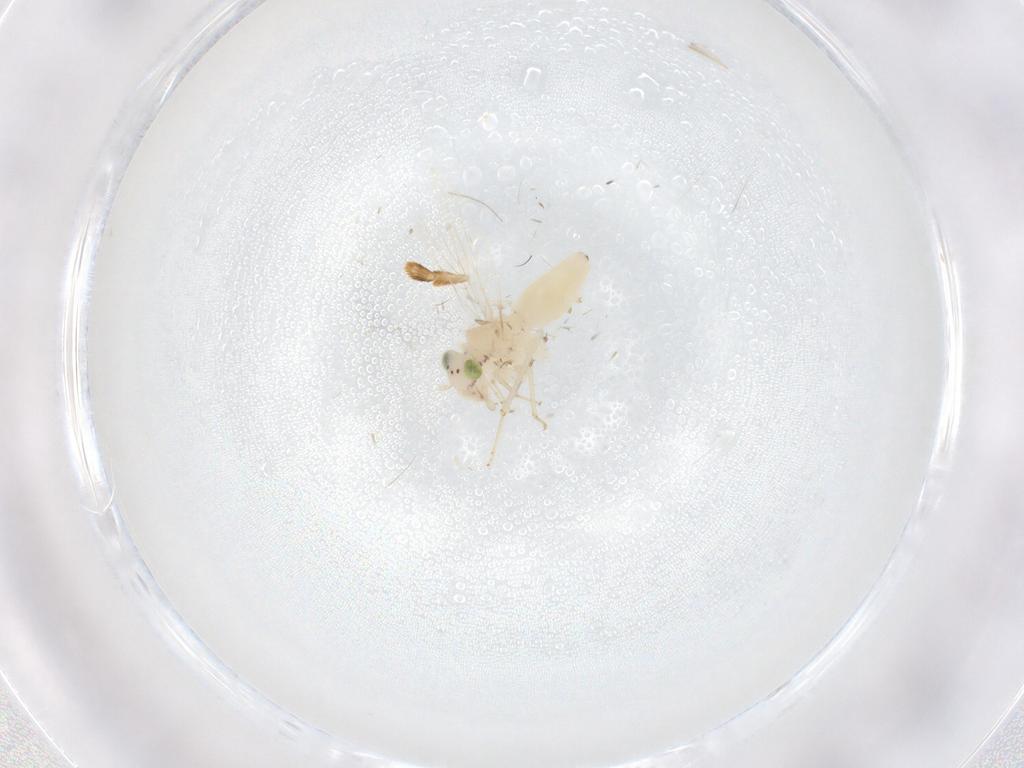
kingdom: Animalia
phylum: Arthropoda
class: Insecta
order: Psocodea
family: Lepidopsocidae
